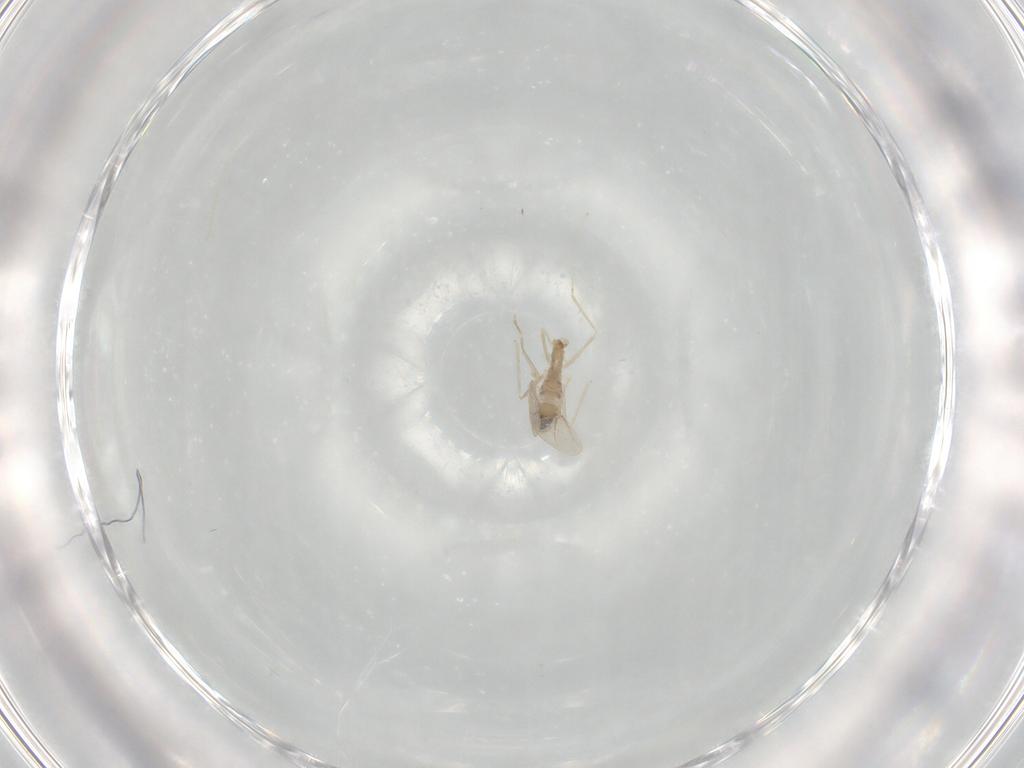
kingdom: Animalia
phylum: Arthropoda
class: Insecta
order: Diptera
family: Cecidomyiidae
